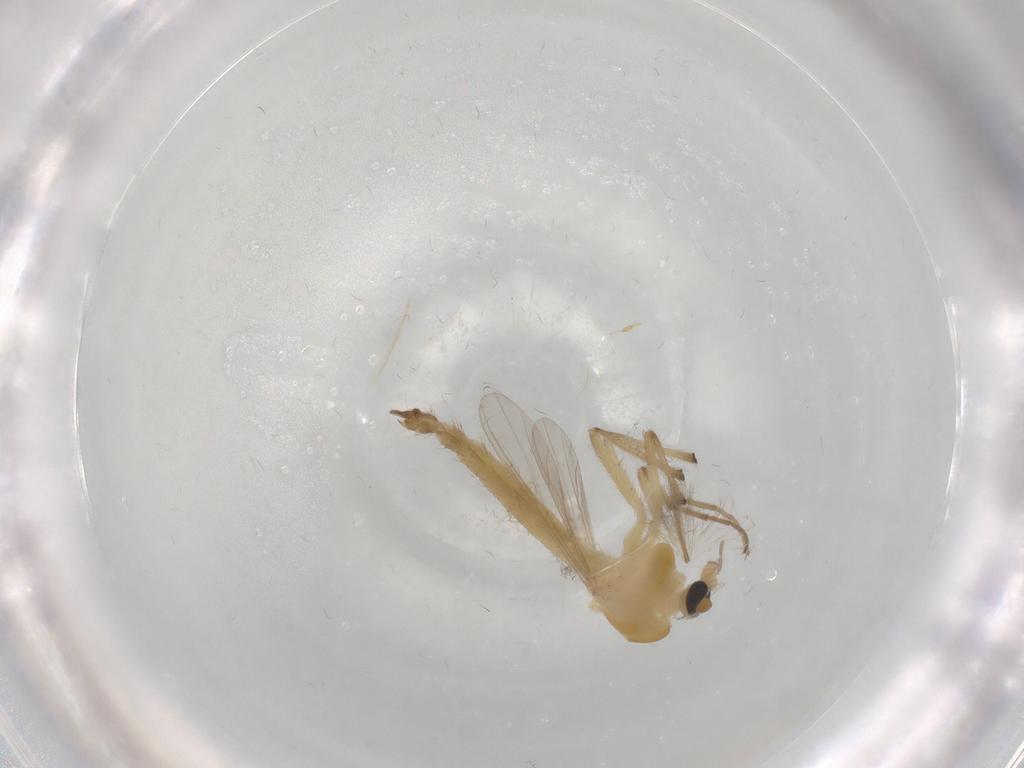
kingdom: Animalia
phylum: Arthropoda
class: Insecta
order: Diptera
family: Chironomidae
